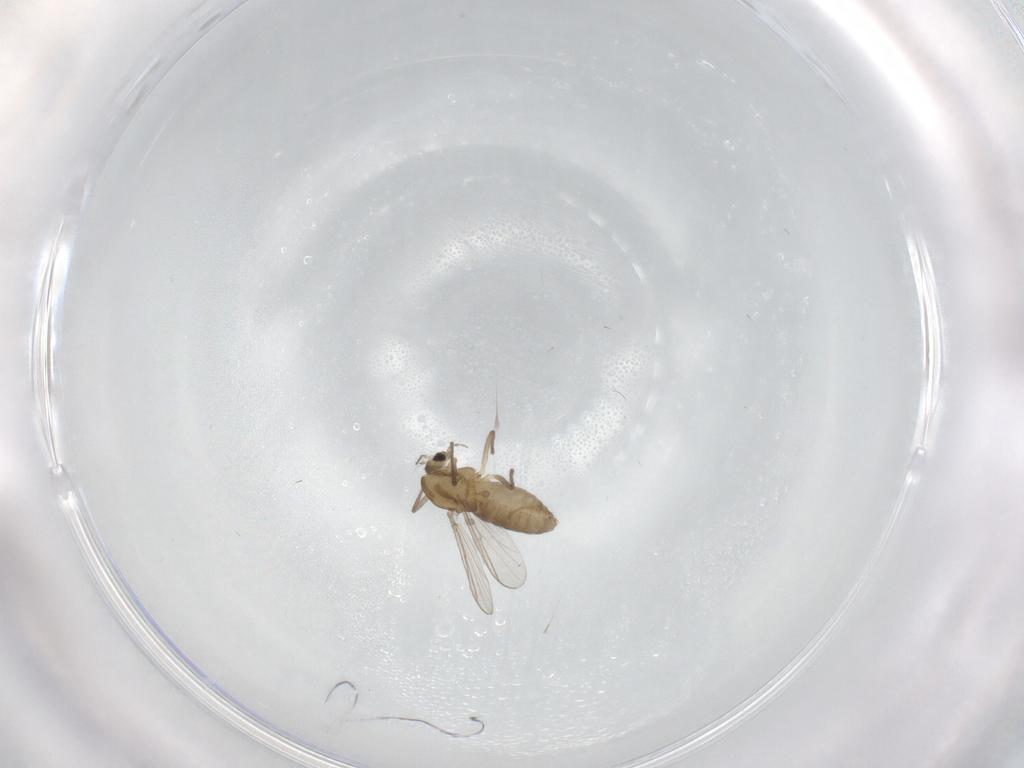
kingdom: Animalia
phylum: Arthropoda
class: Insecta
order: Diptera
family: Chironomidae
